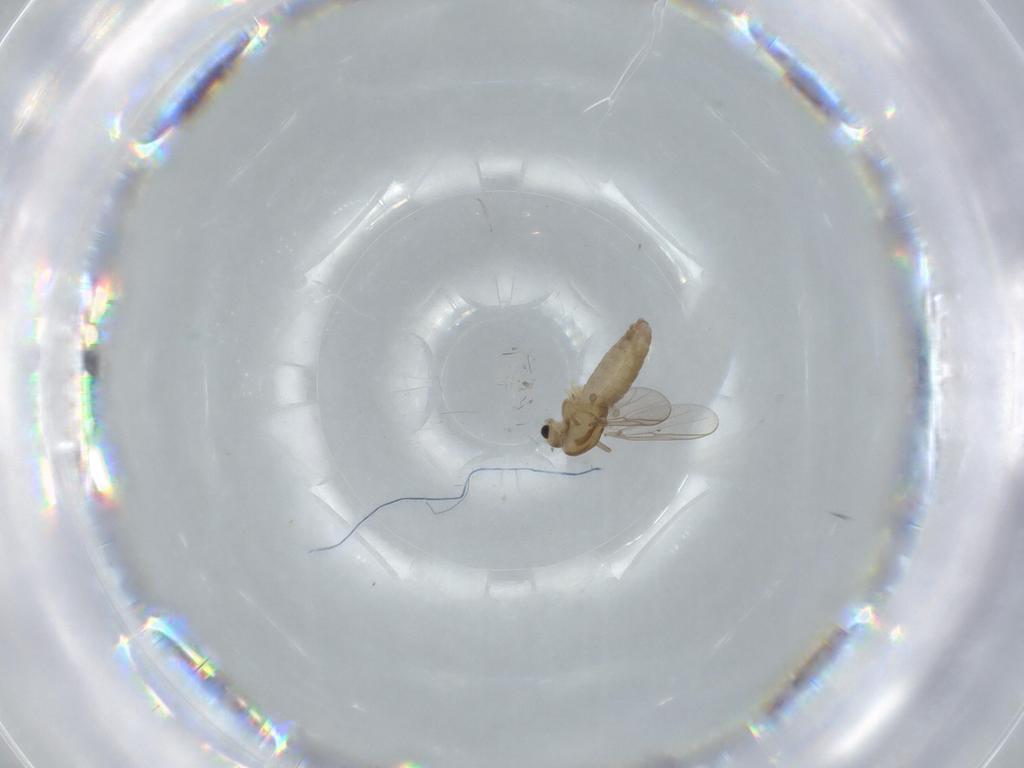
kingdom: Animalia
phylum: Arthropoda
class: Insecta
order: Diptera
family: Chironomidae
